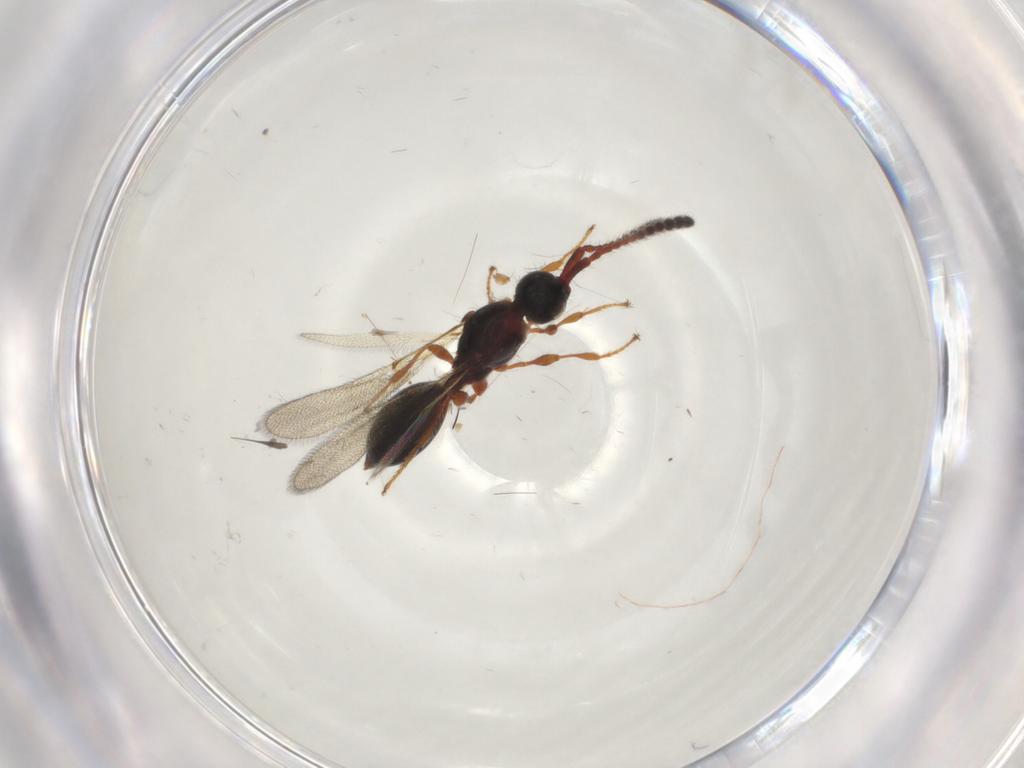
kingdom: Animalia
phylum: Arthropoda
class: Insecta
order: Hymenoptera
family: Diapriidae
